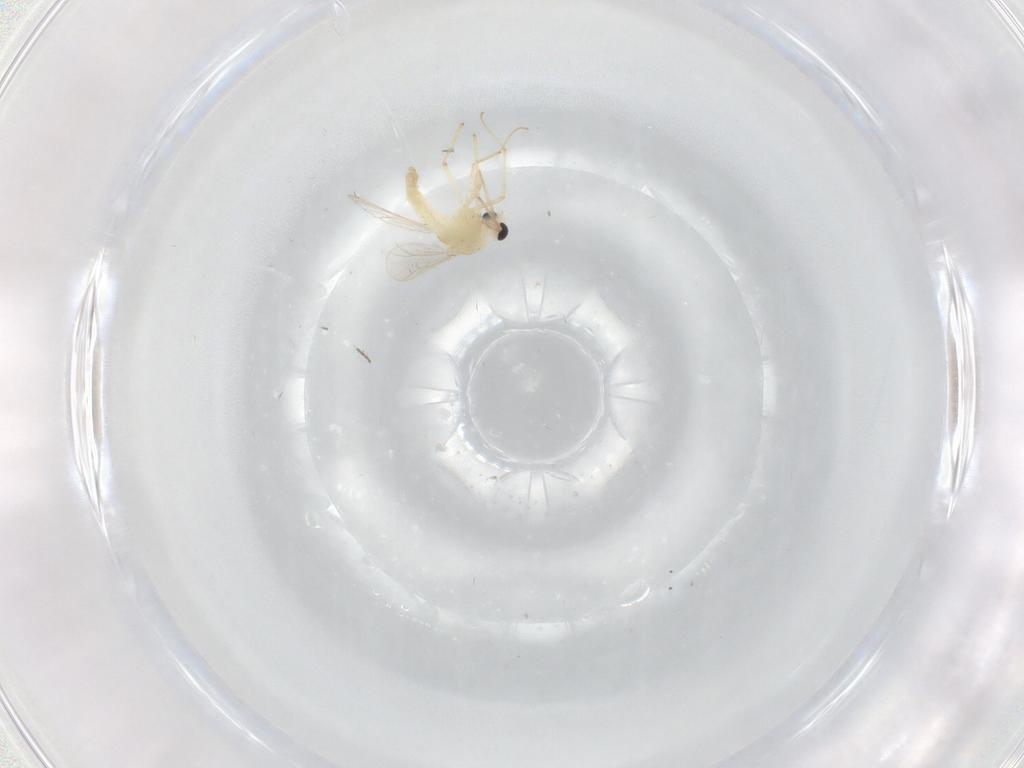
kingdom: Animalia
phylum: Arthropoda
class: Insecta
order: Diptera
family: Chironomidae
